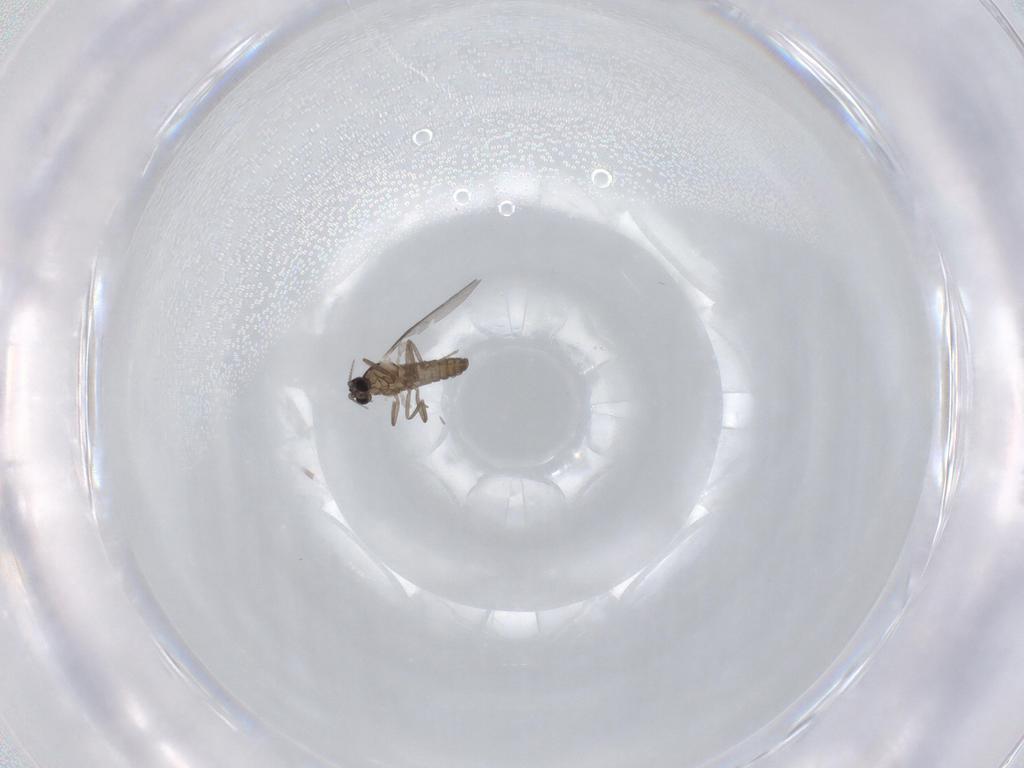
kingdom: Animalia
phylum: Arthropoda
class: Insecta
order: Diptera
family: Cecidomyiidae
